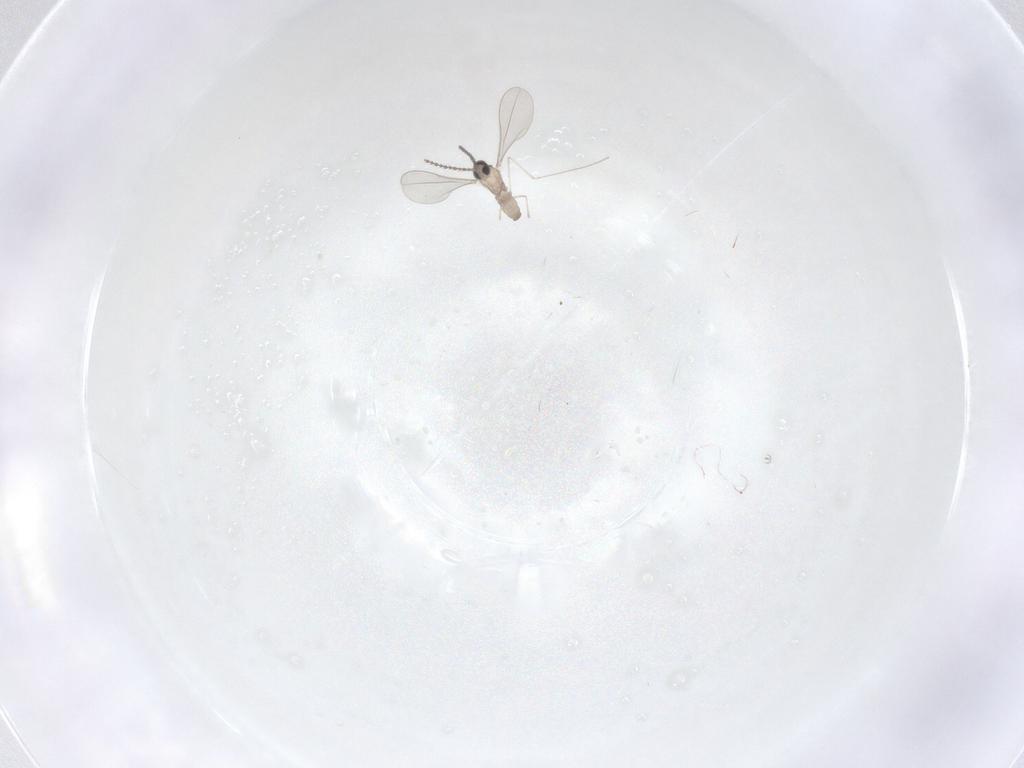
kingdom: Animalia
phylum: Arthropoda
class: Insecta
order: Diptera
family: Cecidomyiidae
